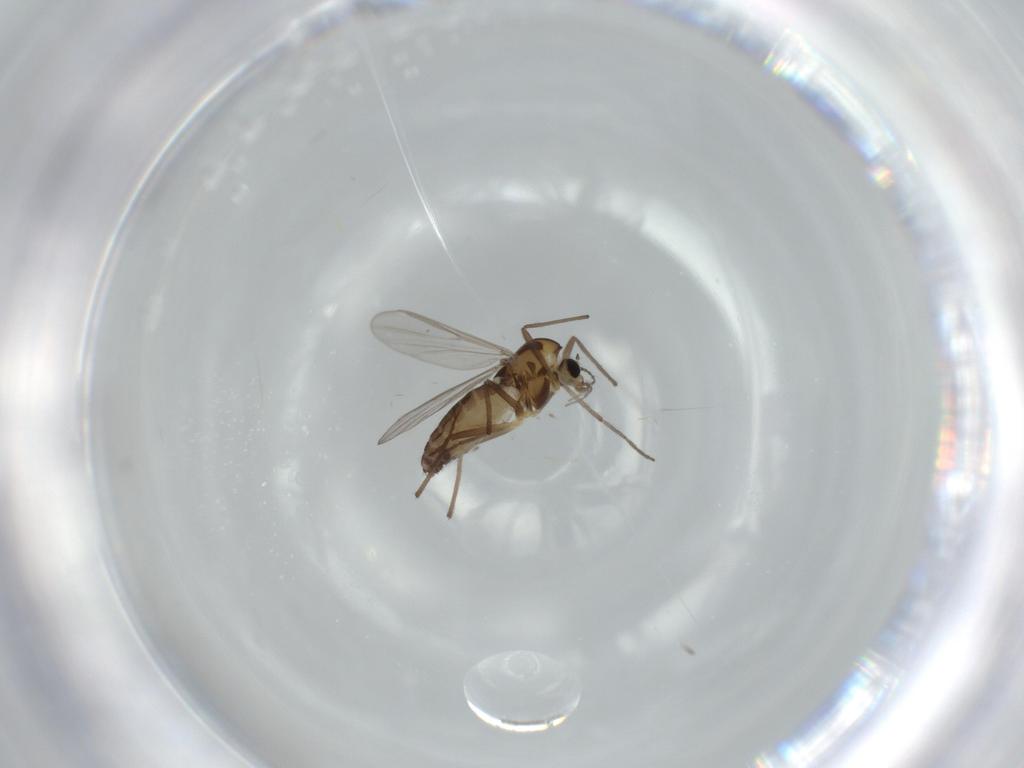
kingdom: Animalia
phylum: Arthropoda
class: Insecta
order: Diptera
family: Chironomidae
